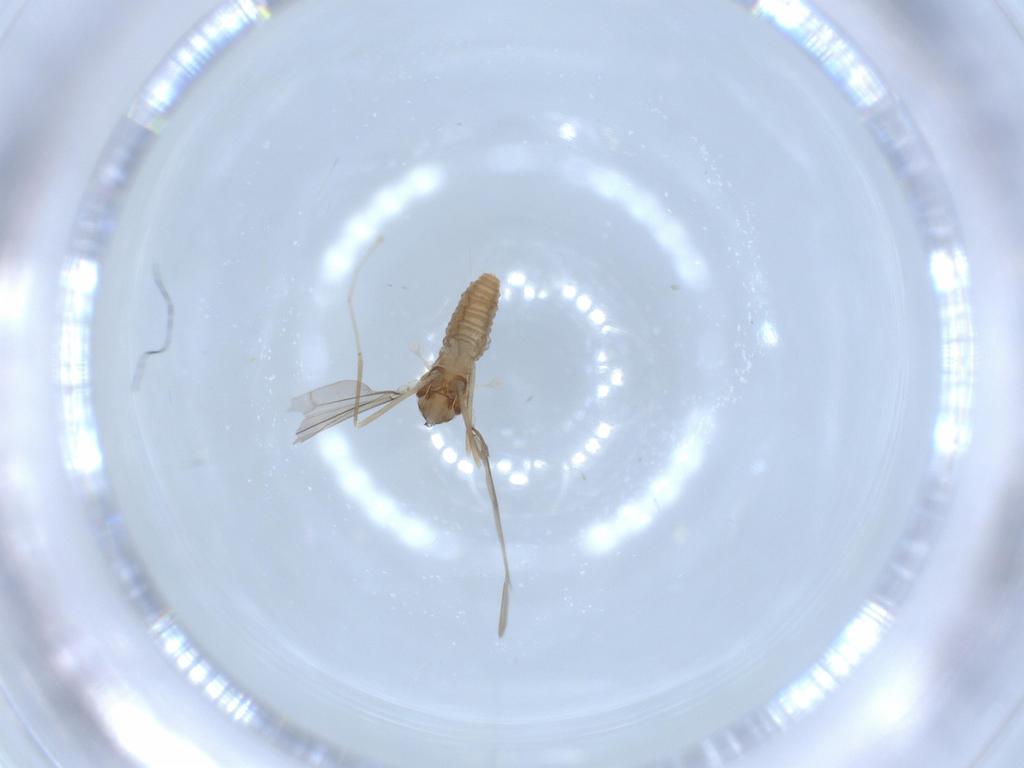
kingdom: Animalia
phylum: Arthropoda
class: Insecta
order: Diptera
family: Cecidomyiidae
